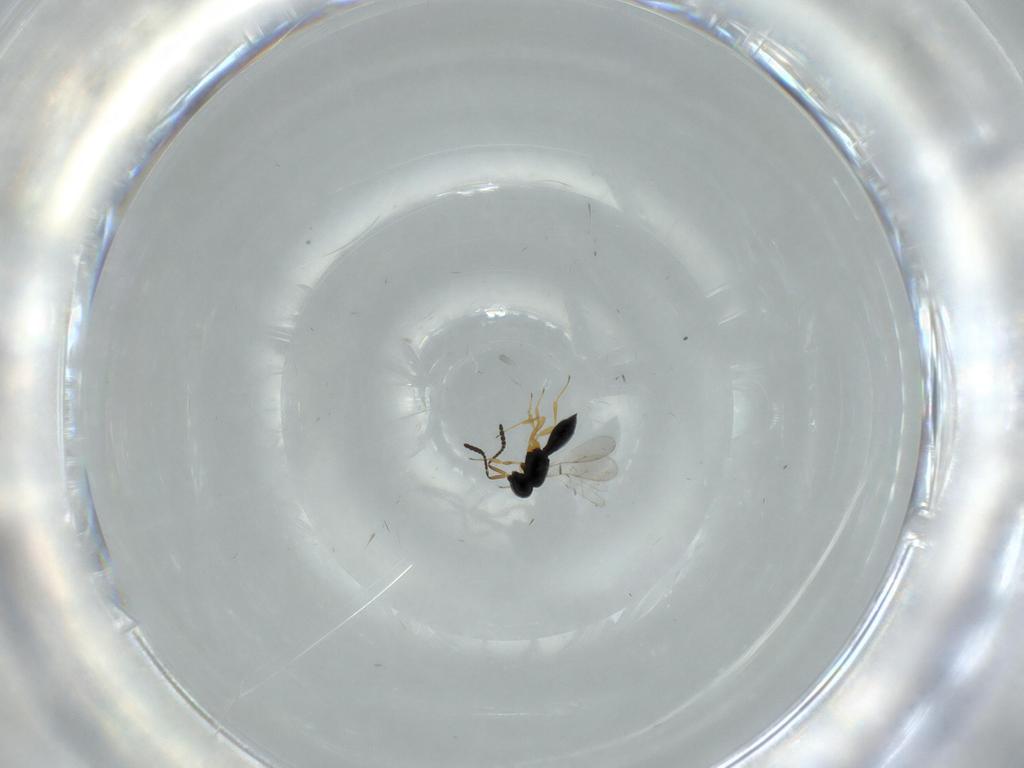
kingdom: Animalia
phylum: Arthropoda
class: Insecta
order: Hymenoptera
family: Scelionidae
